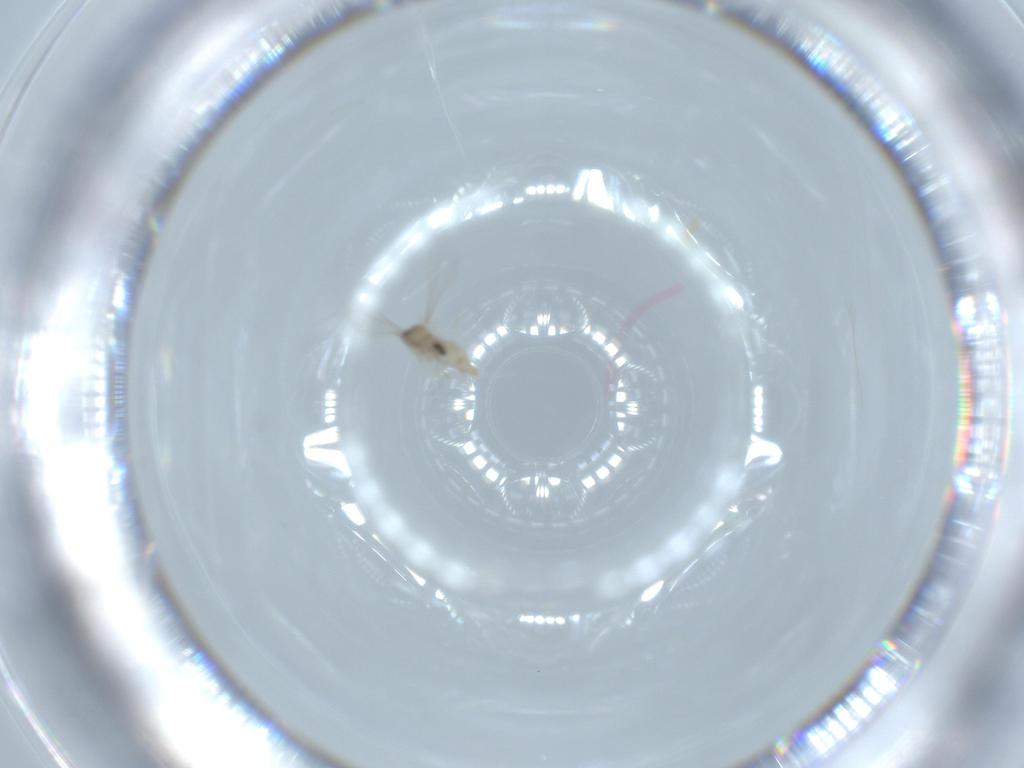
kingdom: Animalia
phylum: Arthropoda
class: Insecta
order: Diptera
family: Cecidomyiidae
